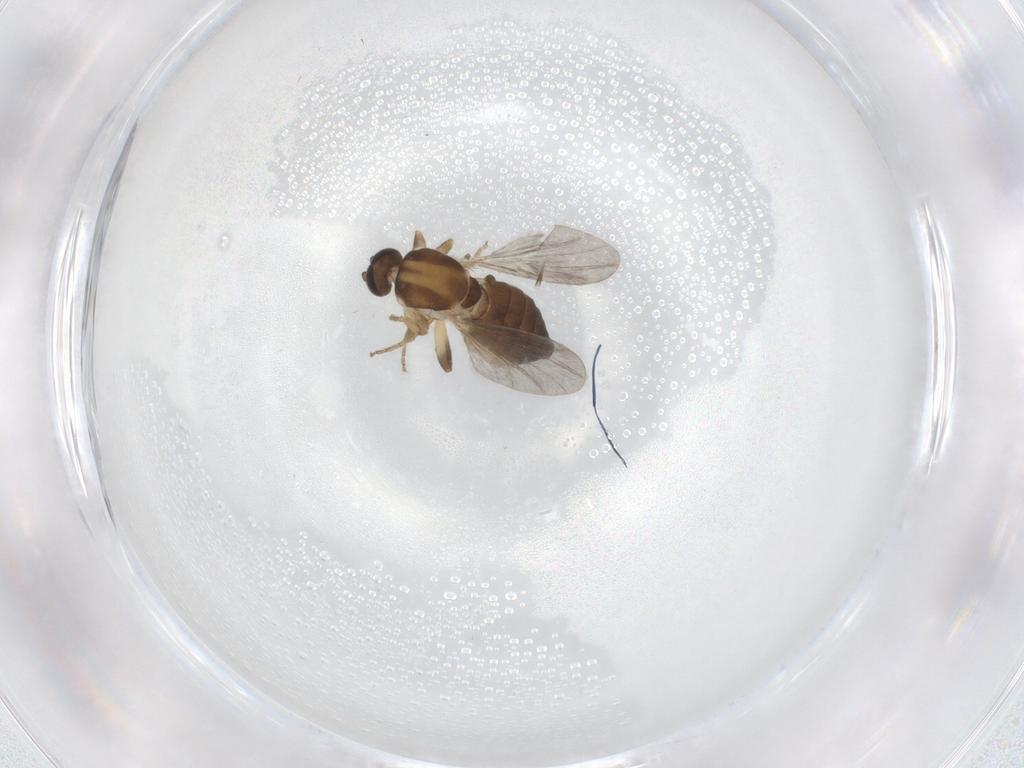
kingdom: Animalia
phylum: Arthropoda
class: Insecta
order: Diptera
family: Ceratopogonidae
